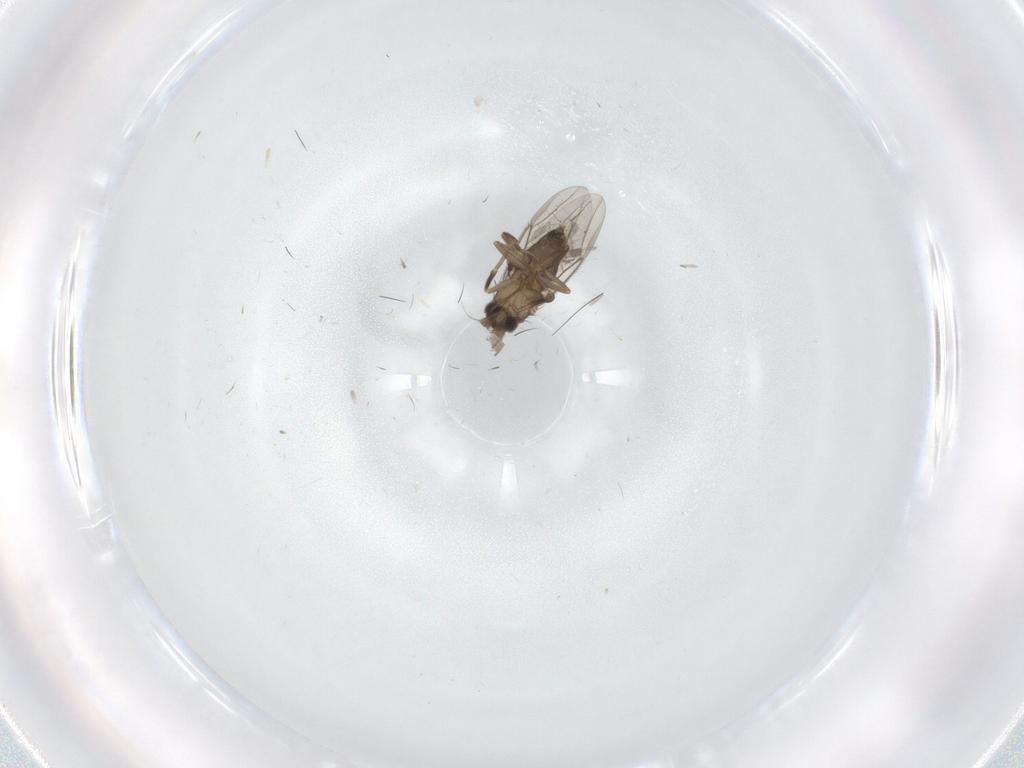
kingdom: Animalia
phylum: Arthropoda
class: Insecta
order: Diptera
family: Phoridae
